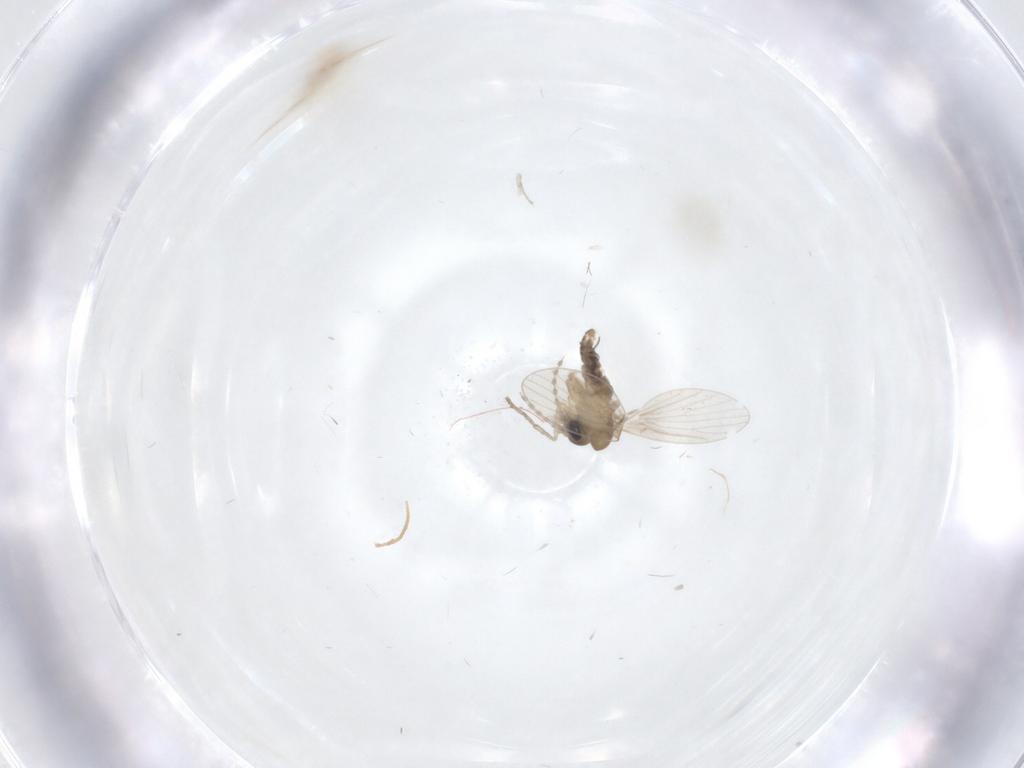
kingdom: Animalia
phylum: Arthropoda
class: Insecta
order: Diptera
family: Psychodidae
